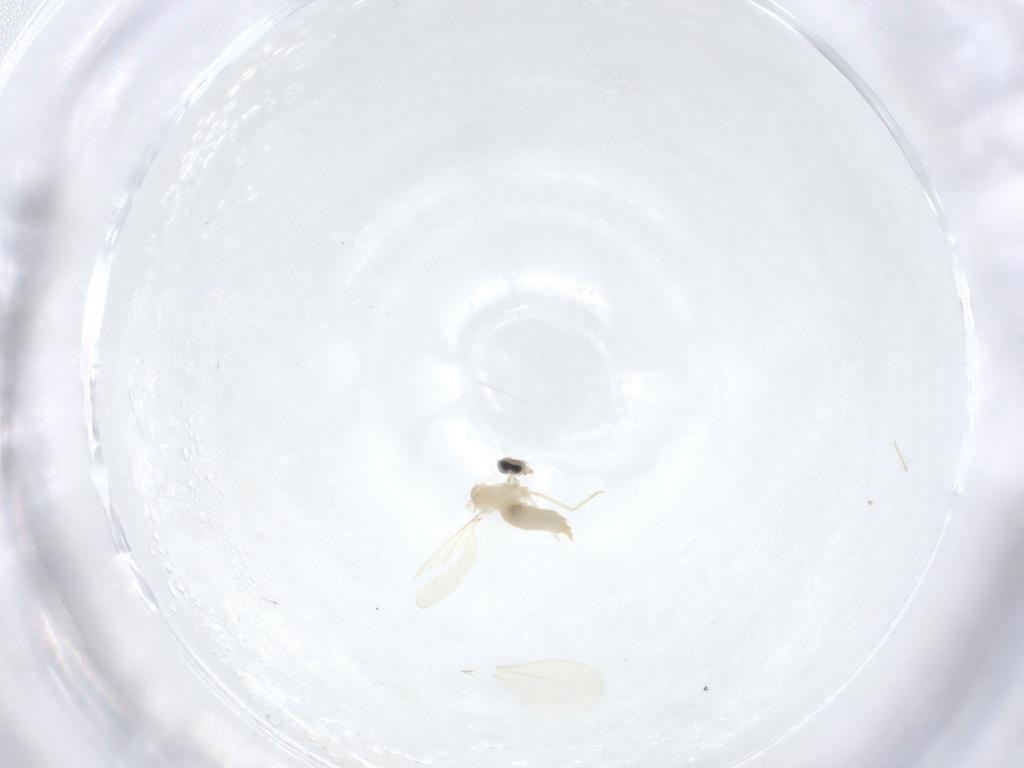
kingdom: Animalia
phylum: Arthropoda
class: Insecta
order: Diptera
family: Cecidomyiidae
